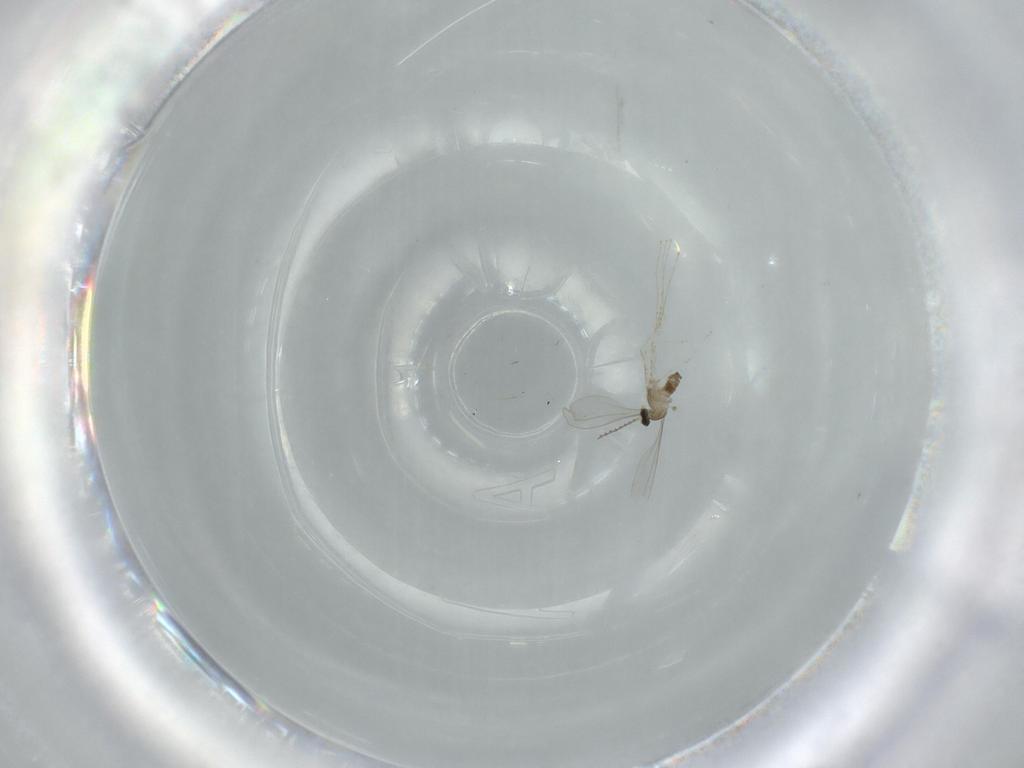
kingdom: Animalia
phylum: Arthropoda
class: Insecta
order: Diptera
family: Cecidomyiidae
